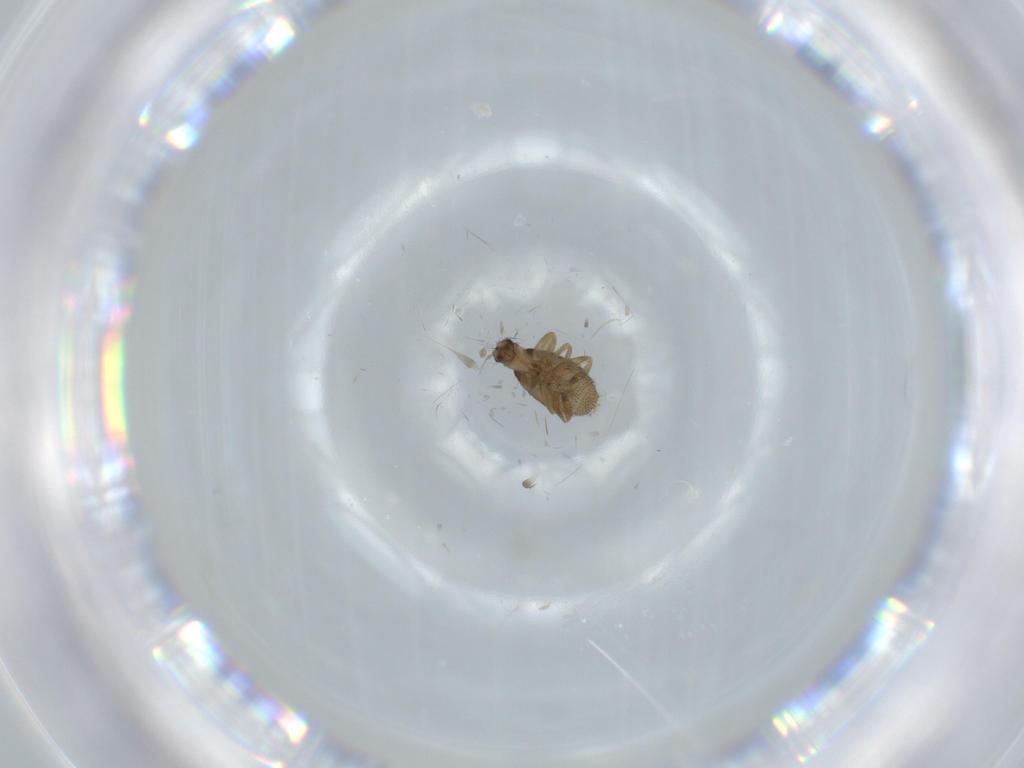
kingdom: Animalia
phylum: Arthropoda
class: Insecta
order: Diptera
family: Phoridae
